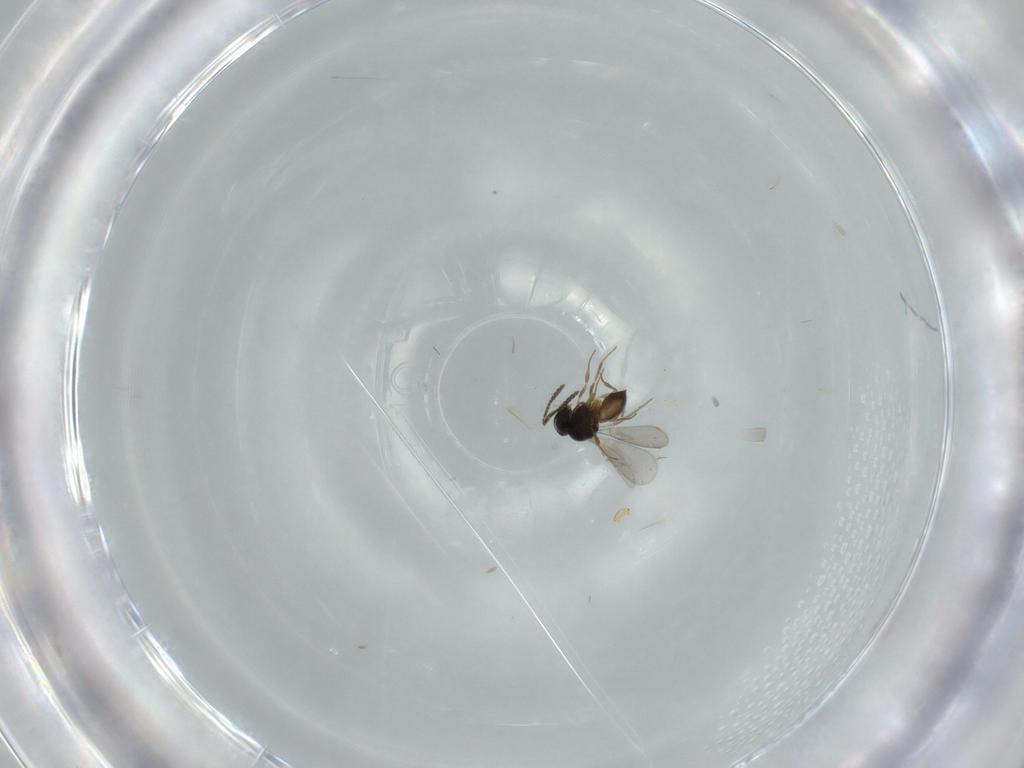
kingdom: Animalia
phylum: Arthropoda
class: Insecta
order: Hymenoptera
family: Scelionidae
